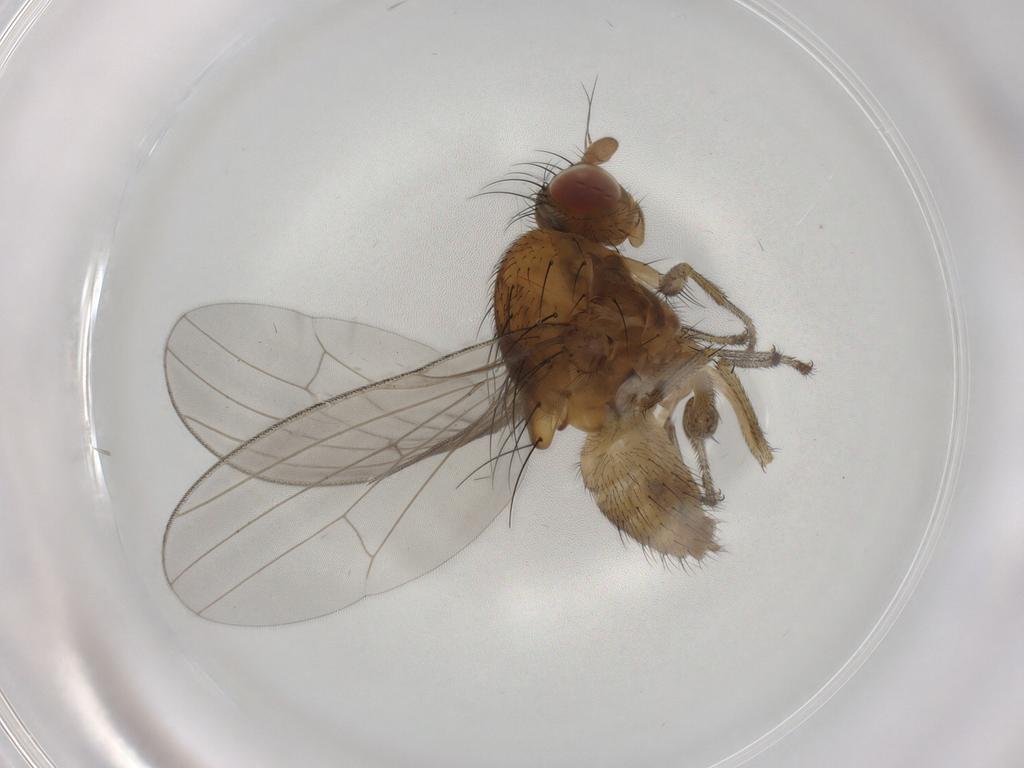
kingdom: Animalia
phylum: Arthropoda
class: Insecta
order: Diptera
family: Lauxaniidae
